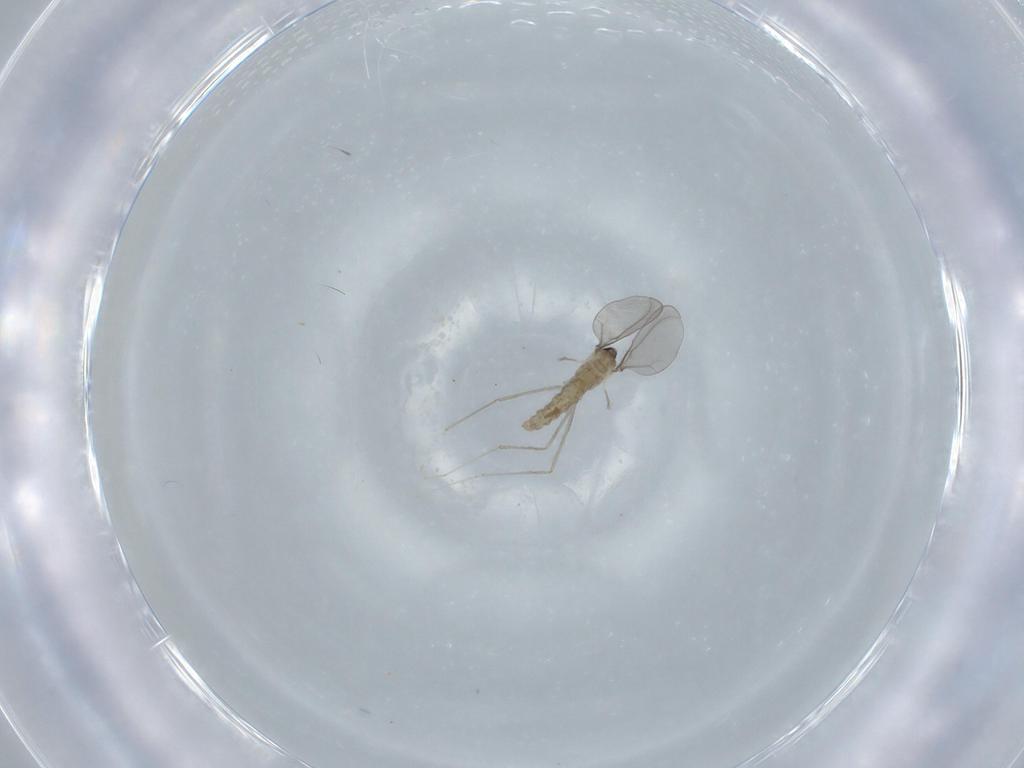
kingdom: Animalia
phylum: Arthropoda
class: Insecta
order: Diptera
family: Cecidomyiidae
